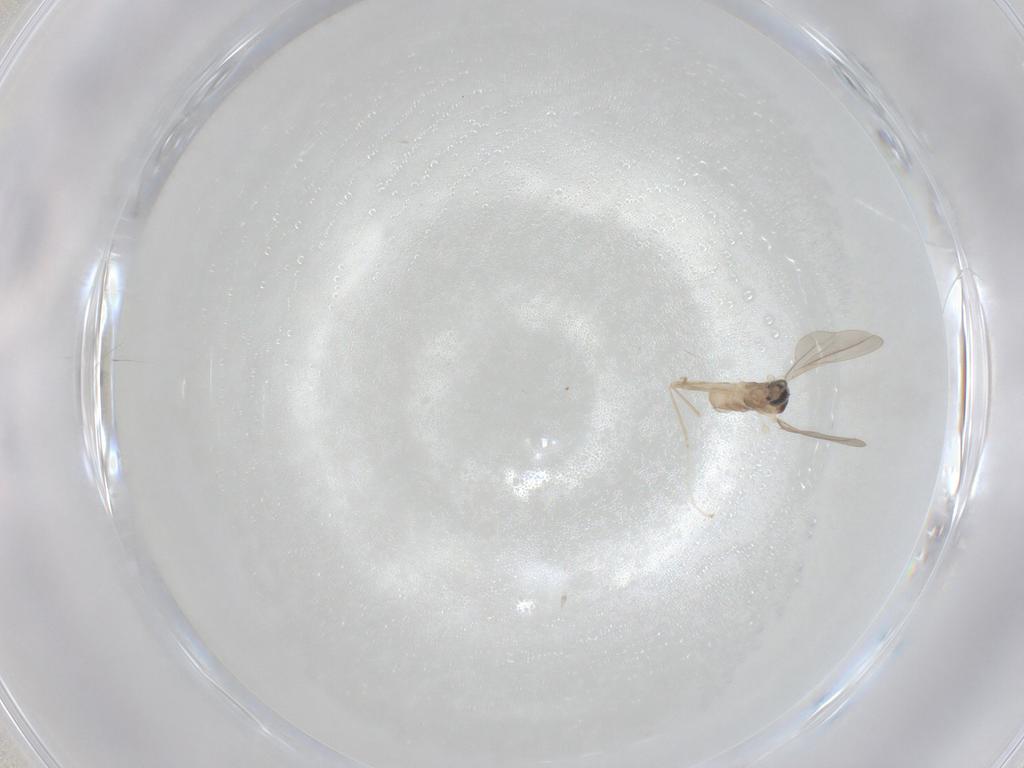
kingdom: Animalia
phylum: Arthropoda
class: Insecta
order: Diptera
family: Cecidomyiidae
